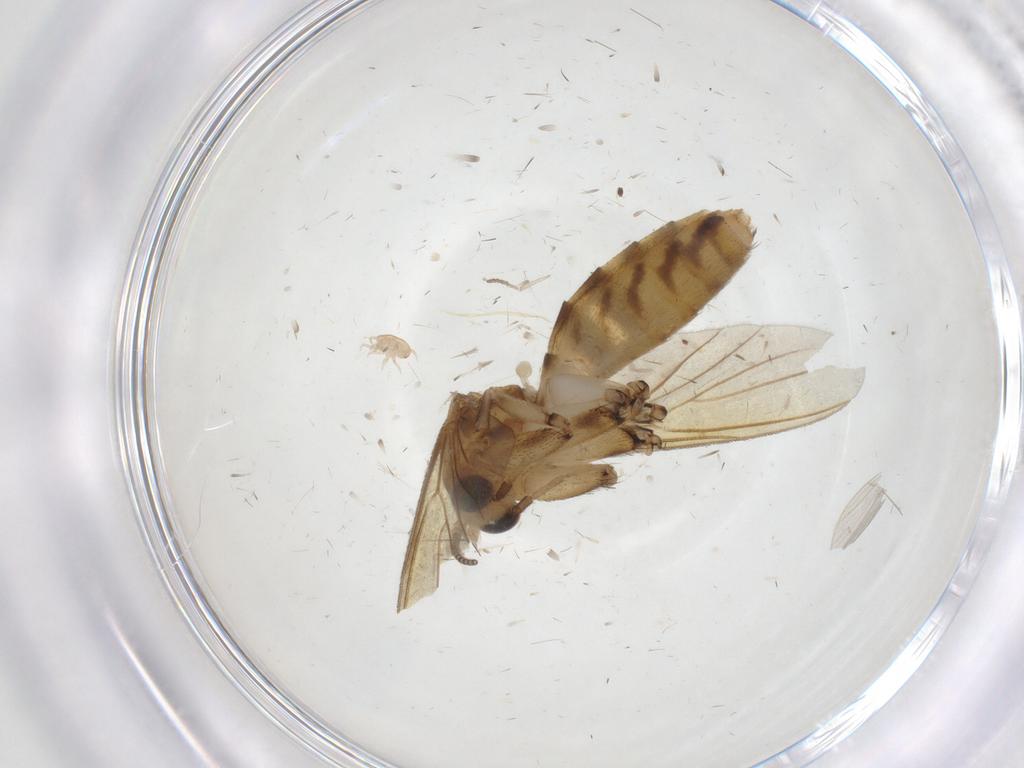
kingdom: Animalia
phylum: Arthropoda
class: Insecta
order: Diptera
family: Mycetophilidae
